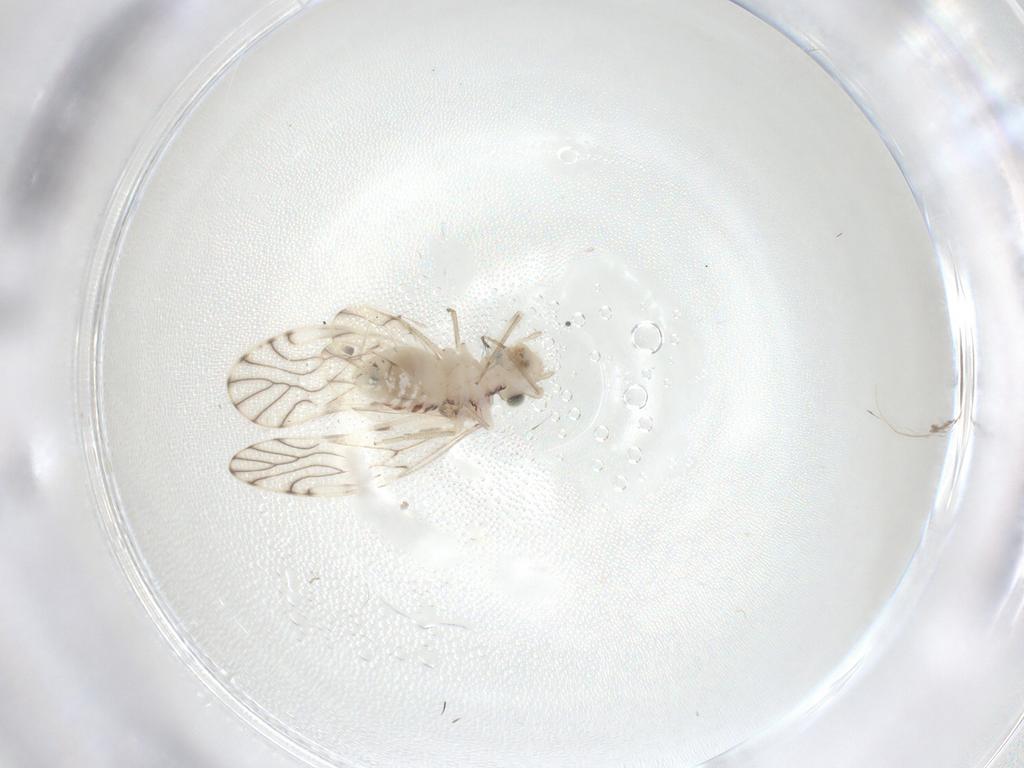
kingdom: Animalia
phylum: Arthropoda
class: Insecta
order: Psocodea
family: Philotarsidae
